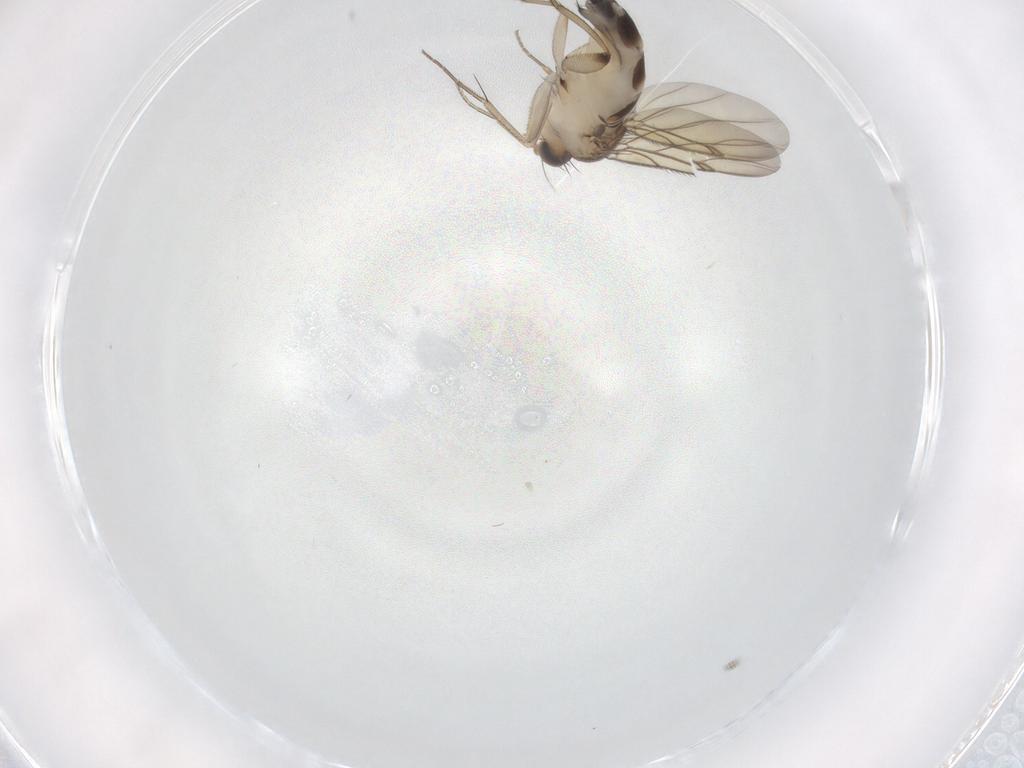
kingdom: Animalia
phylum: Arthropoda
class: Insecta
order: Diptera
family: Phoridae
